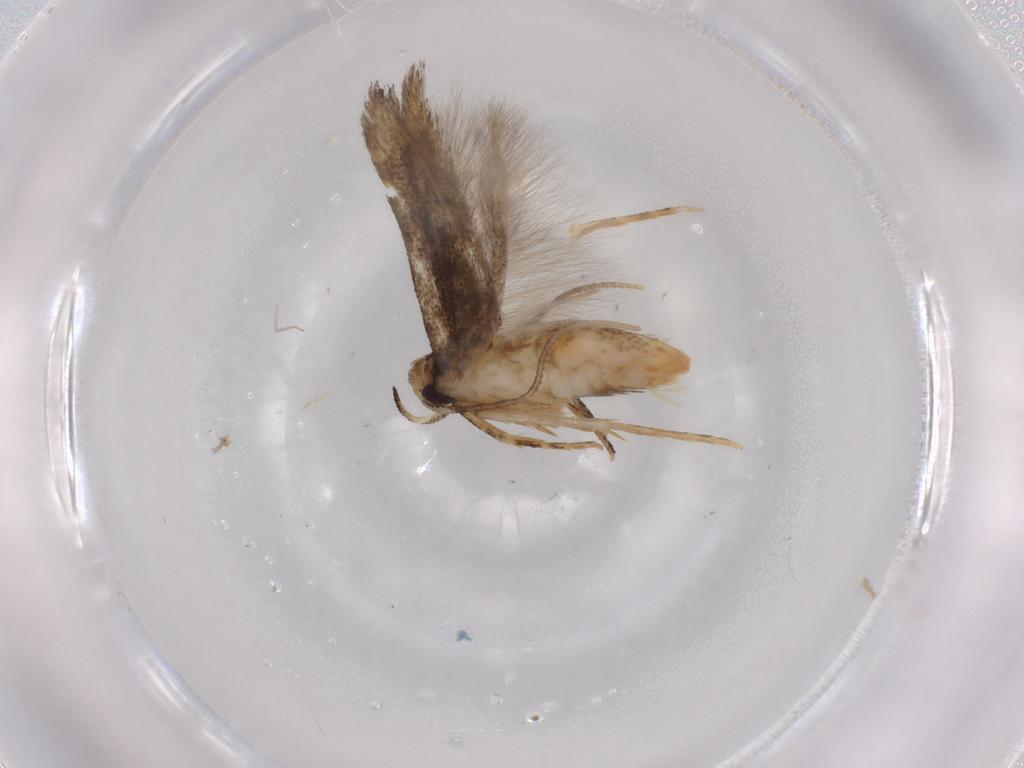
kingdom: Animalia
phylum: Arthropoda
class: Insecta
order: Lepidoptera
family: Cosmopterigidae
